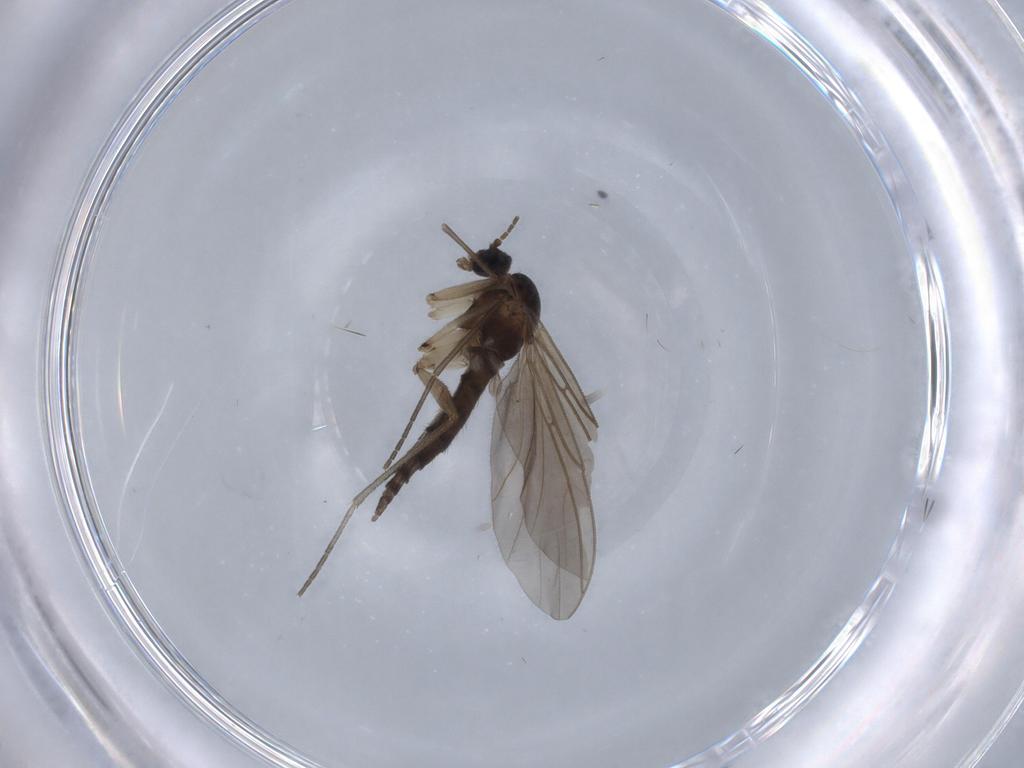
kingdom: Animalia
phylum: Arthropoda
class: Insecta
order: Diptera
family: Sciaridae
